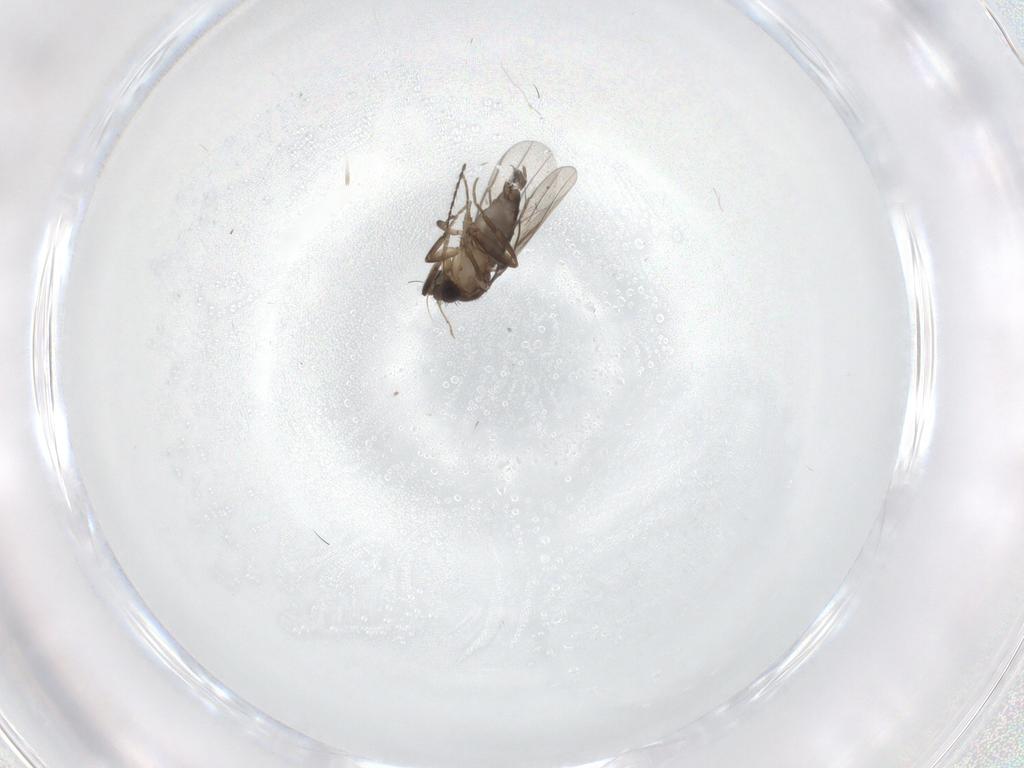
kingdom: Animalia
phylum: Arthropoda
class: Insecta
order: Diptera
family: Phoridae
